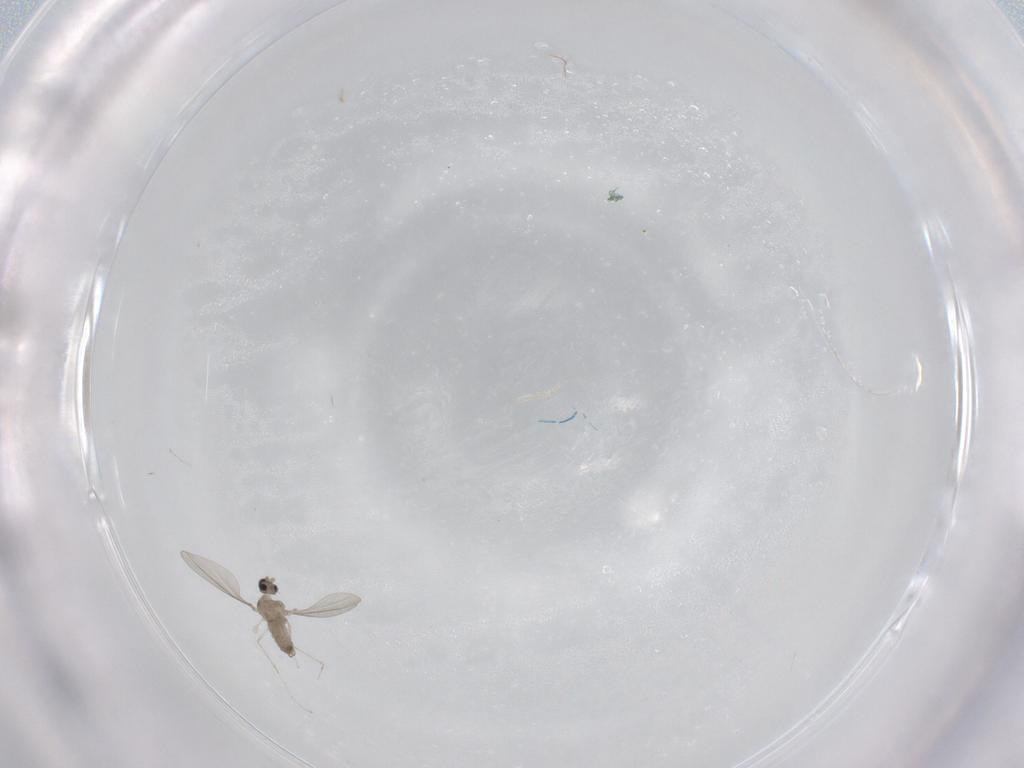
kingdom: Animalia
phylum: Arthropoda
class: Insecta
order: Diptera
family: Cecidomyiidae
